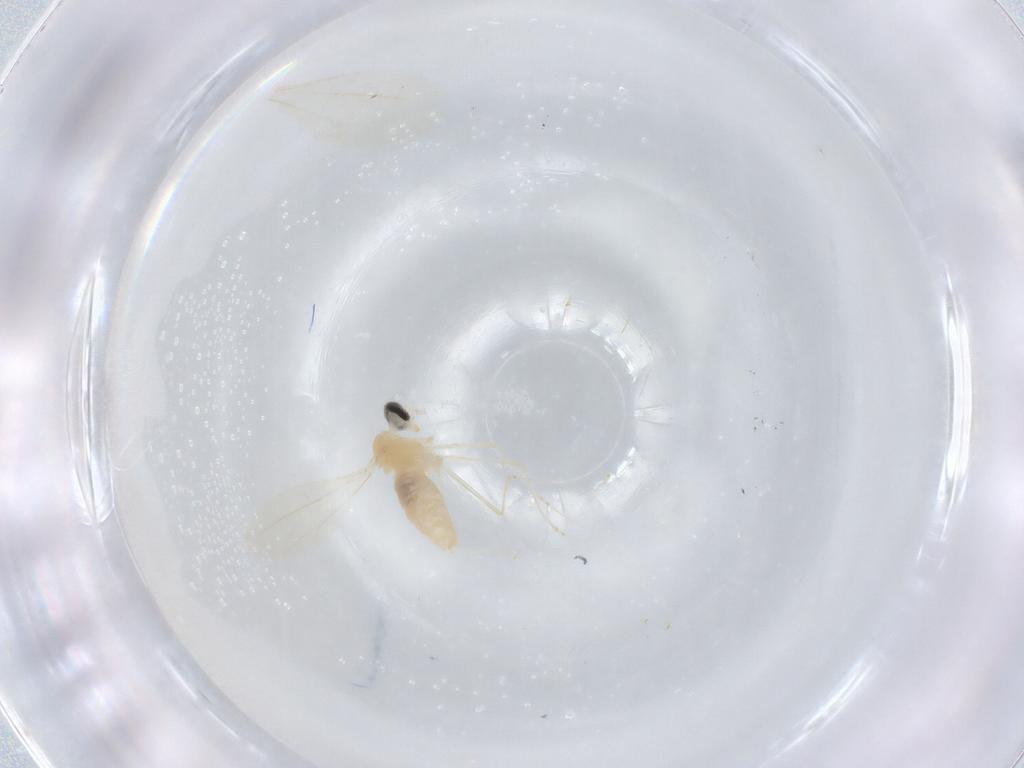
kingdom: Animalia
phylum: Arthropoda
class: Insecta
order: Diptera
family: Cecidomyiidae
